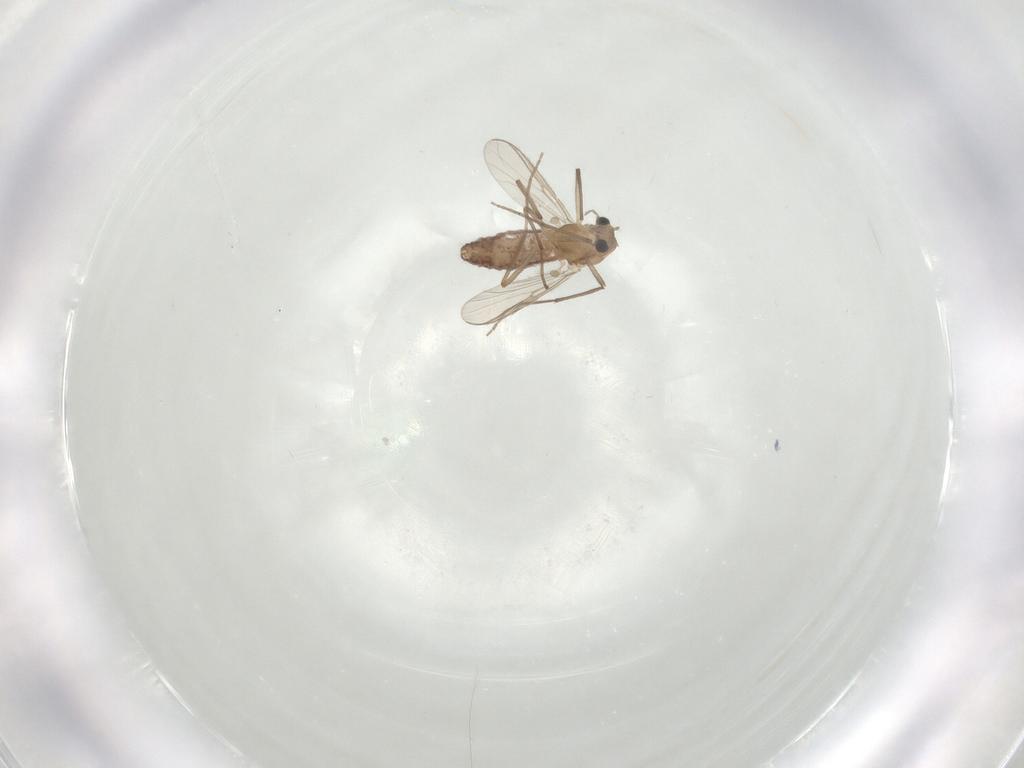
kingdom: Animalia
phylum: Arthropoda
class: Insecta
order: Diptera
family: Chironomidae
